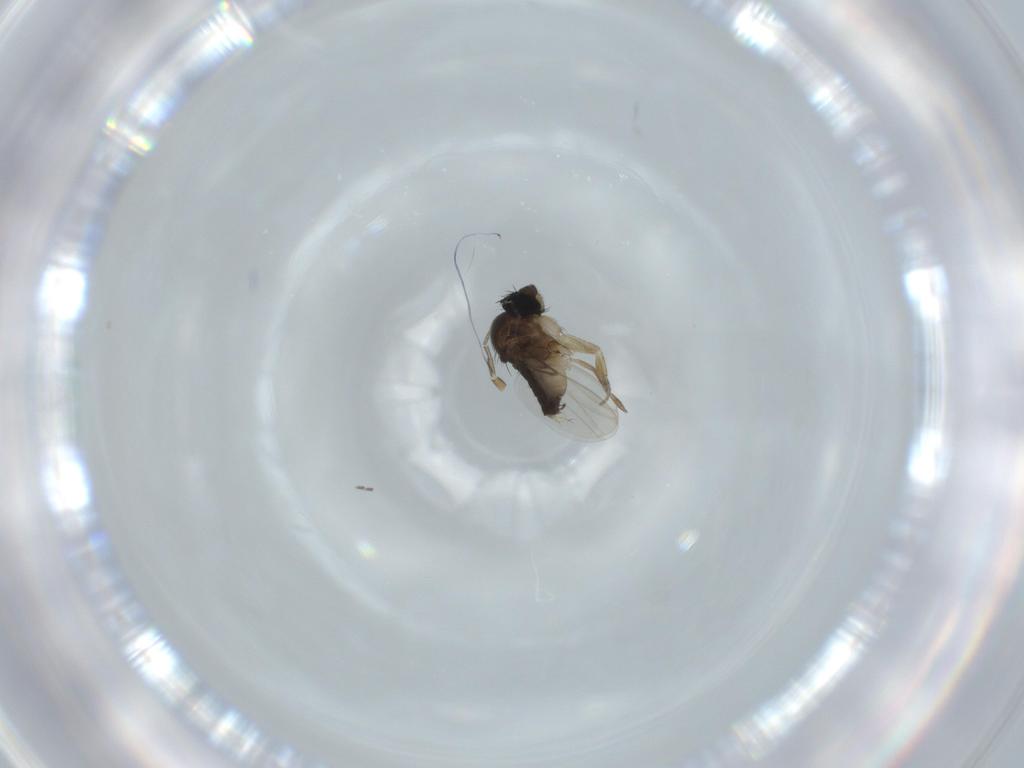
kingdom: Animalia
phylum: Arthropoda
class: Insecta
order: Diptera
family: Phoridae
